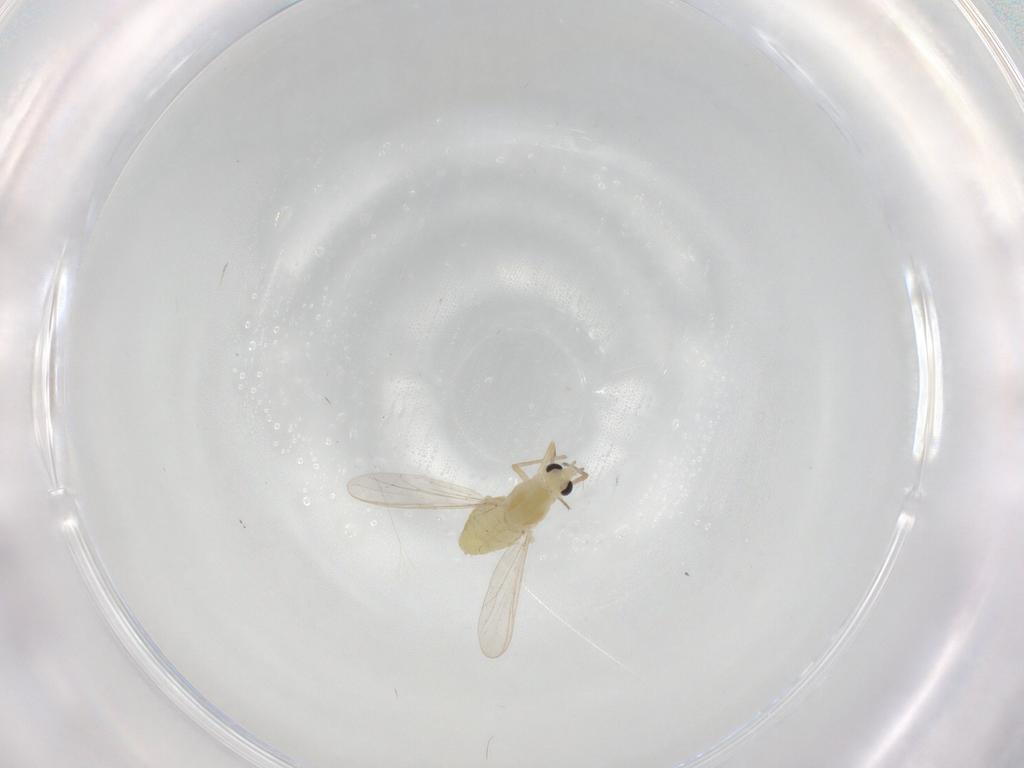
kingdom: Animalia
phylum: Arthropoda
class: Insecta
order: Diptera
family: Chironomidae
